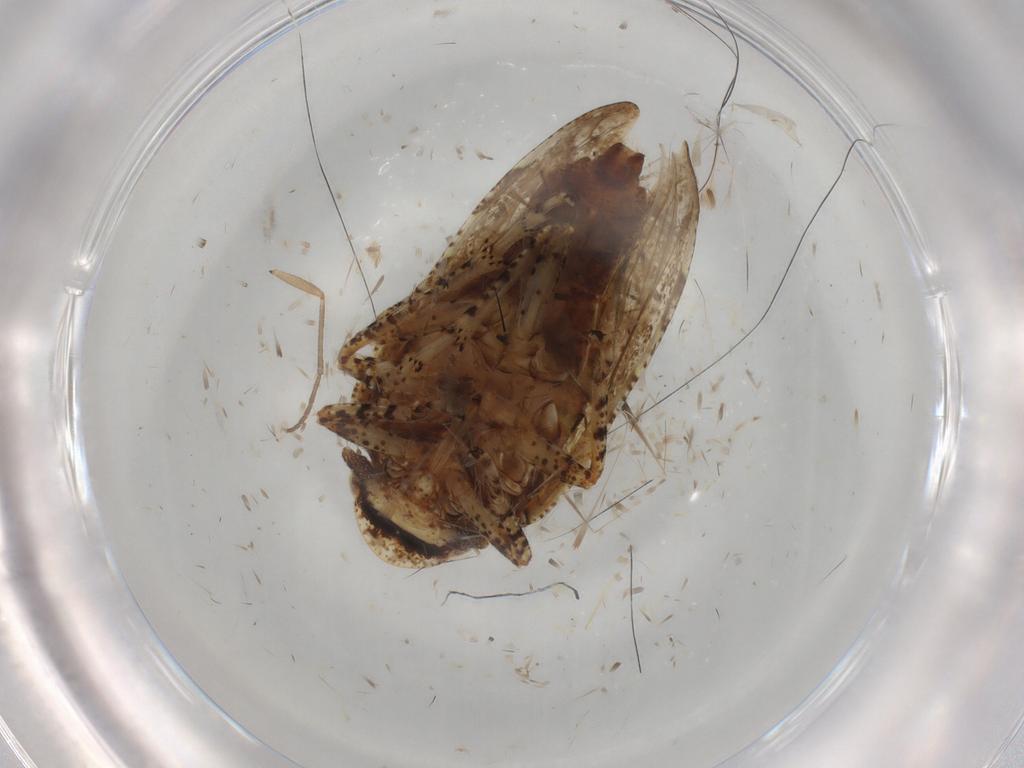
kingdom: Animalia
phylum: Arthropoda
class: Insecta
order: Hemiptera
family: Tettigometridae
